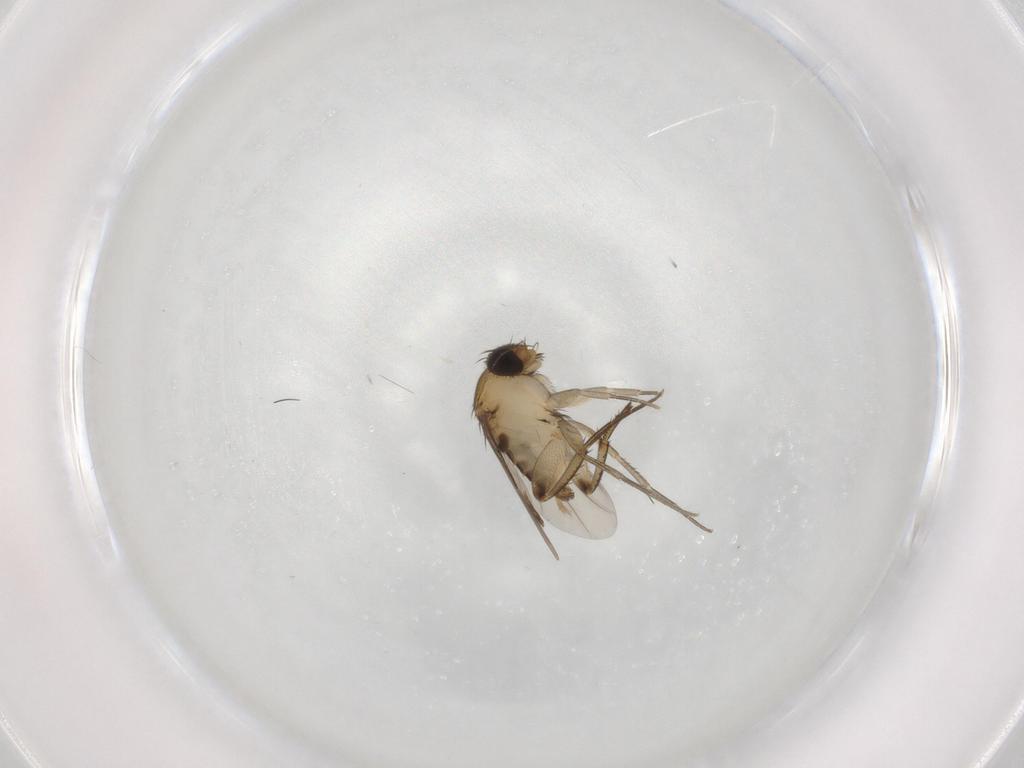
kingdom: Animalia
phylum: Arthropoda
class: Insecta
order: Diptera
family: Phoridae
